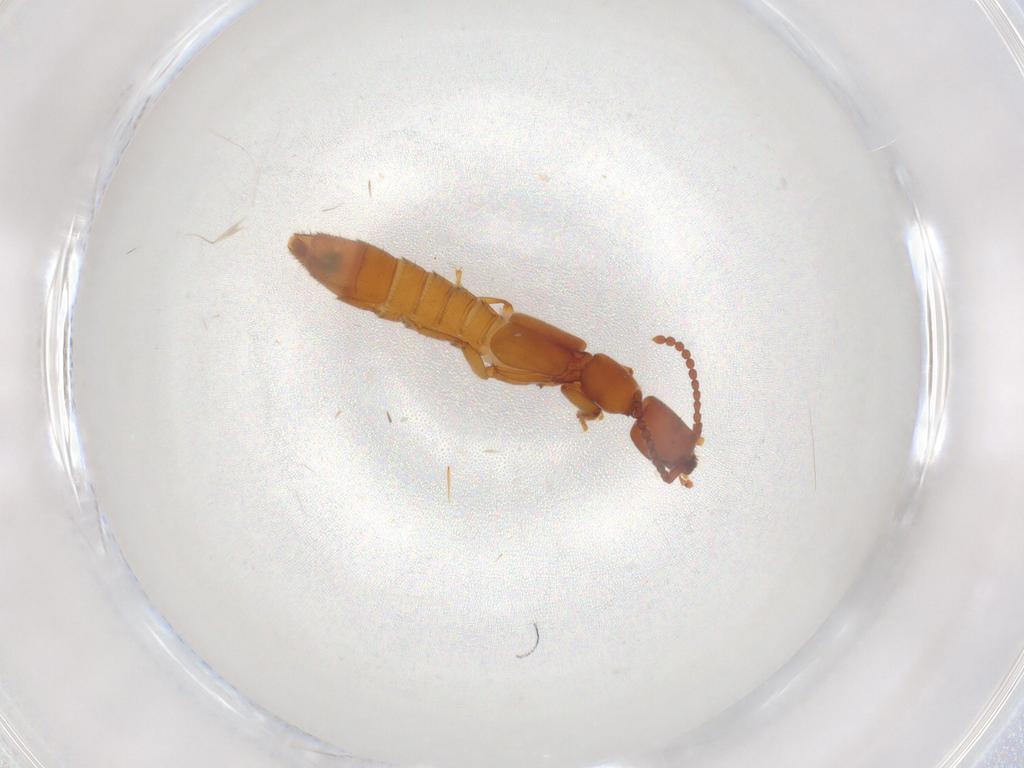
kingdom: Animalia
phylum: Arthropoda
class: Insecta
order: Coleoptera
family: Staphylinidae
